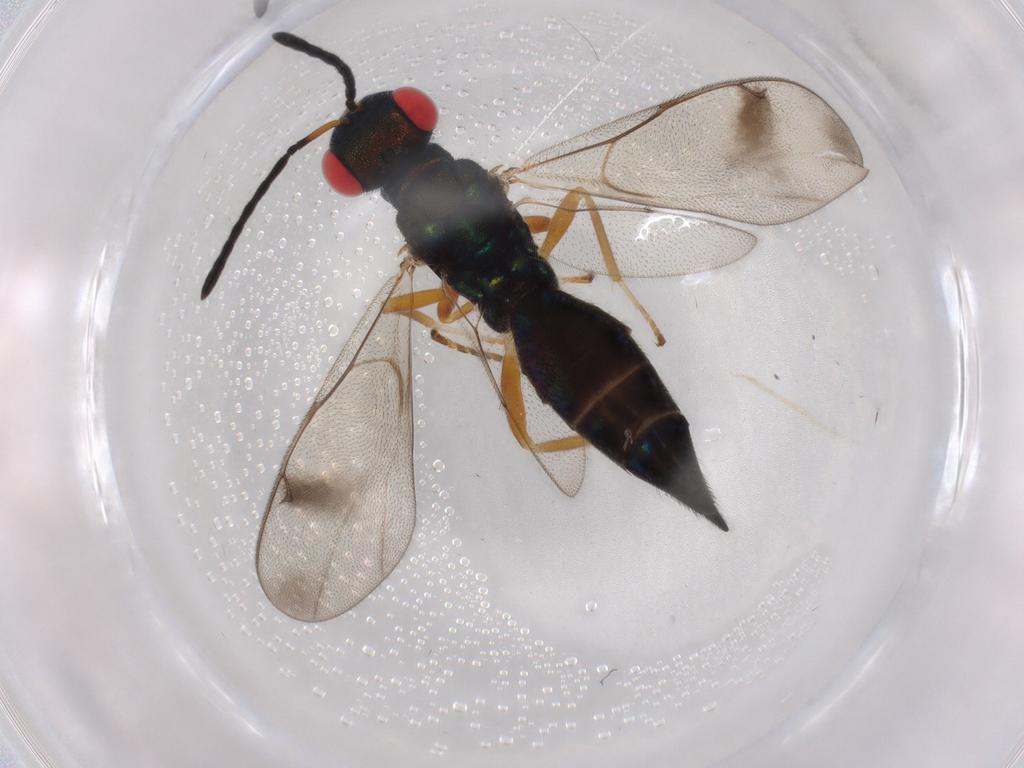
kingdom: Animalia
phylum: Arthropoda
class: Insecta
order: Hymenoptera
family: Pteromalidae
